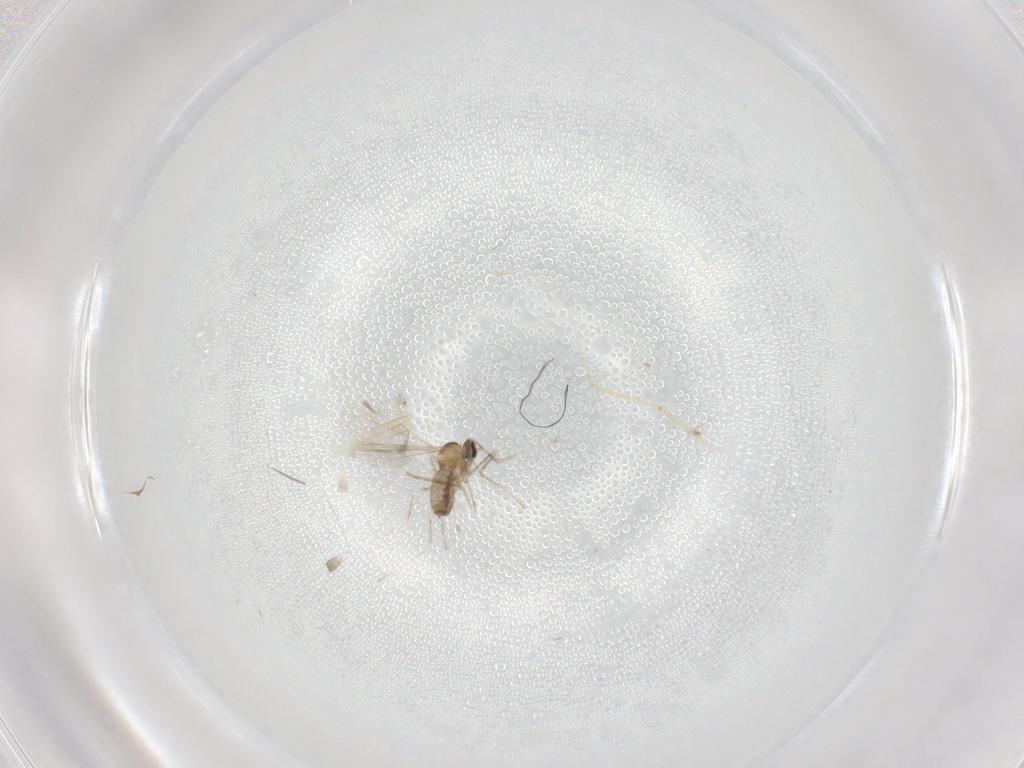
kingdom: Animalia
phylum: Arthropoda
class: Insecta
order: Diptera
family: Cecidomyiidae
